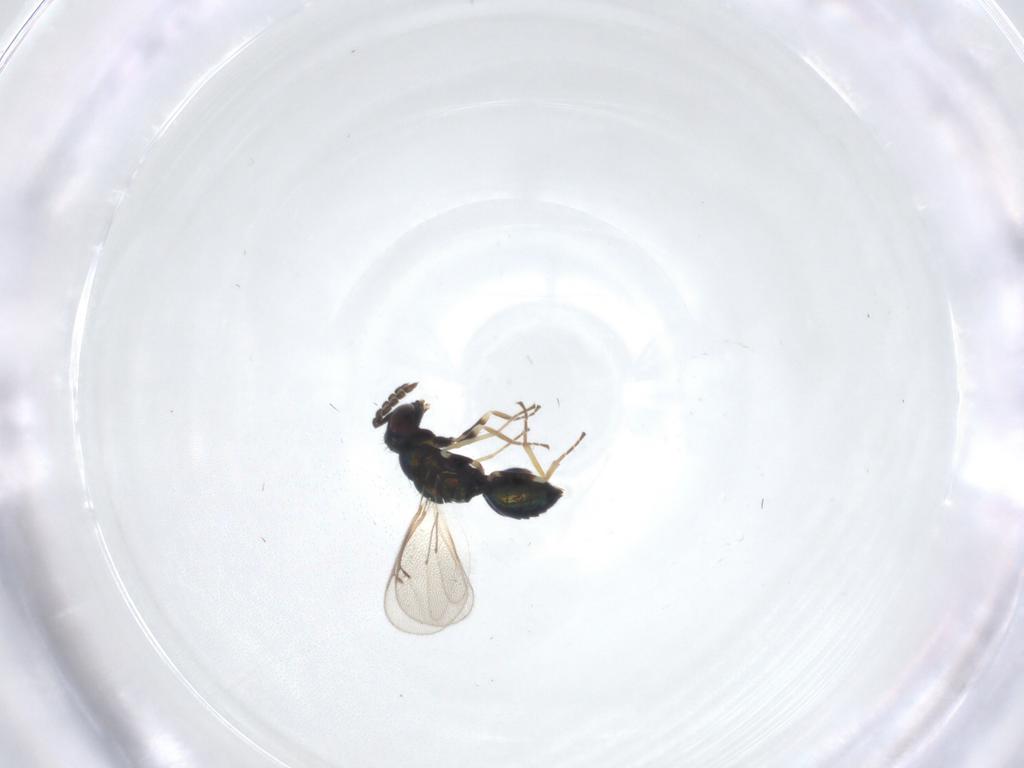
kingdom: Animalia
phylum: Arthropoda
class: Insecta
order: Hymenoptera
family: Eulophidae
